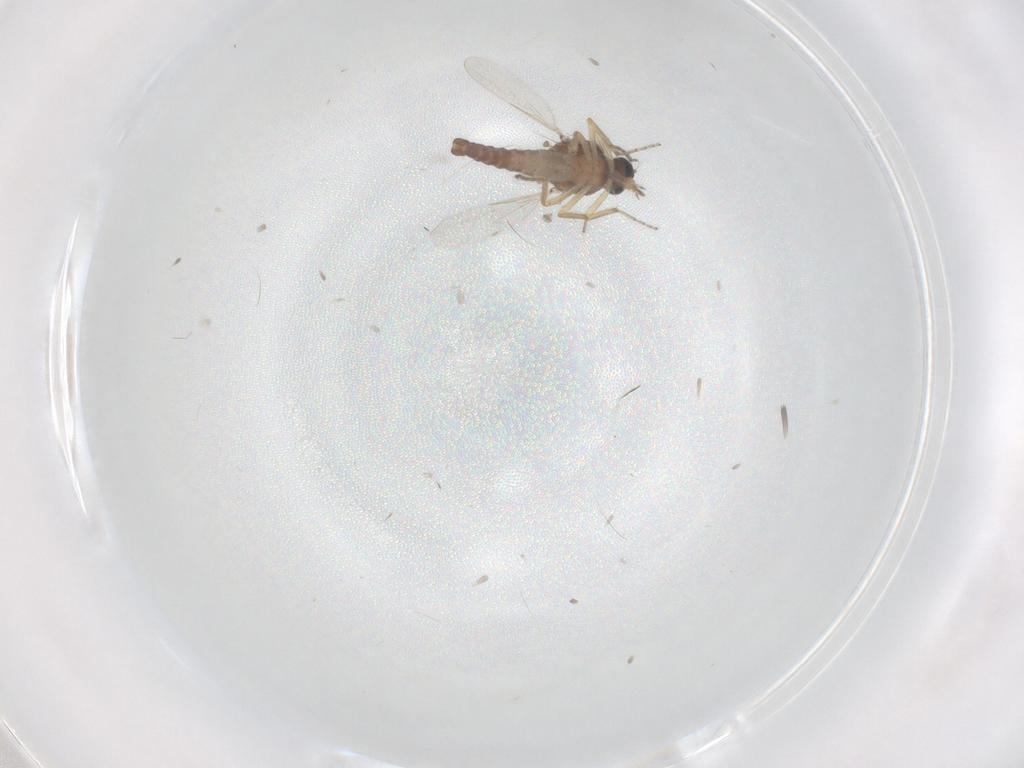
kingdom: Animalia
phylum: Arthropoda
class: Insecta
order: Diptera
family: Ceratopogonidae
